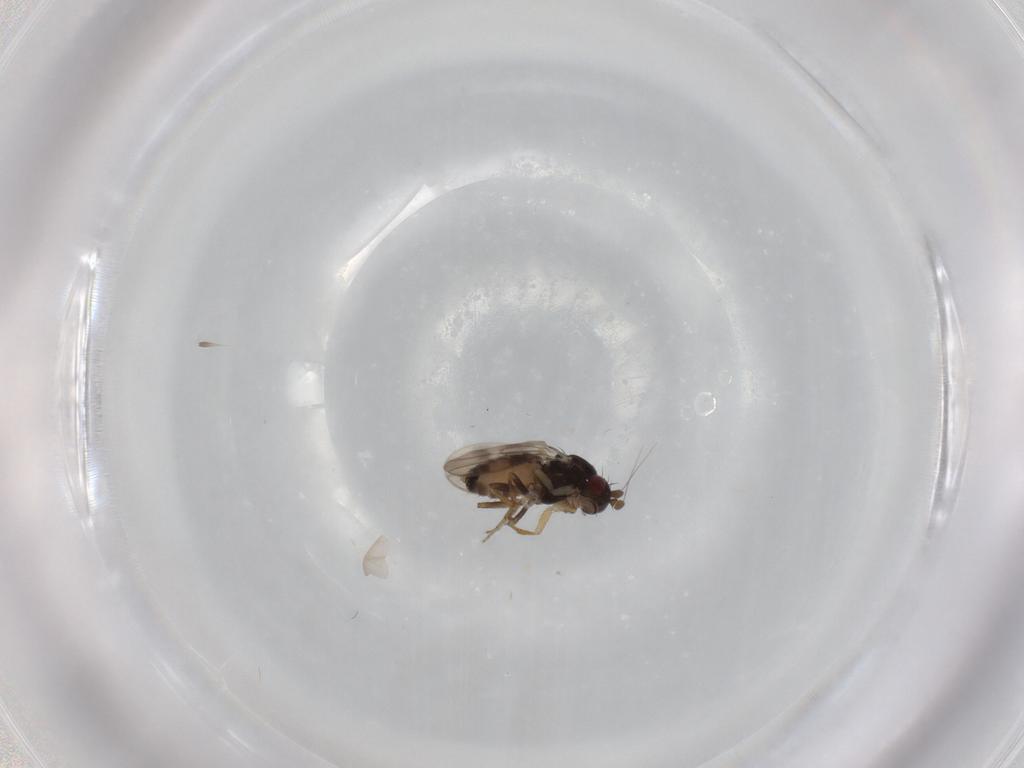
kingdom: Animalia
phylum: Arthropoda
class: Insecta
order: Diptera
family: Sphaeroceridae
